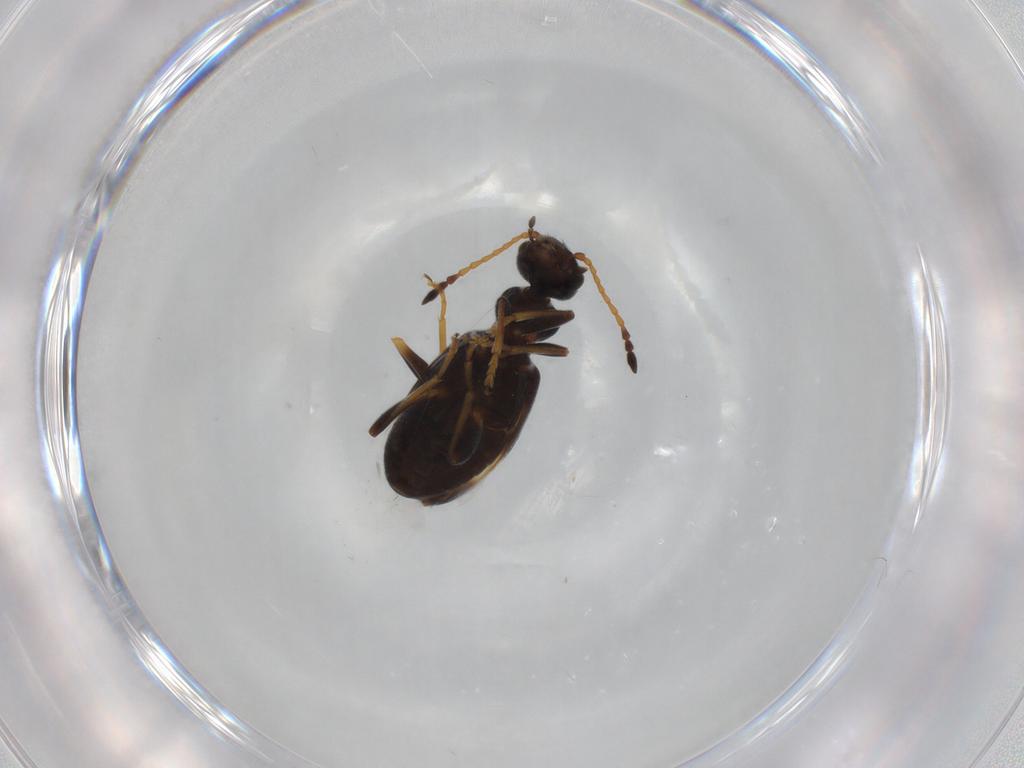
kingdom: Animalia
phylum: Arthropoda
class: Insecta
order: Coleoptera
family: Anthicidae
